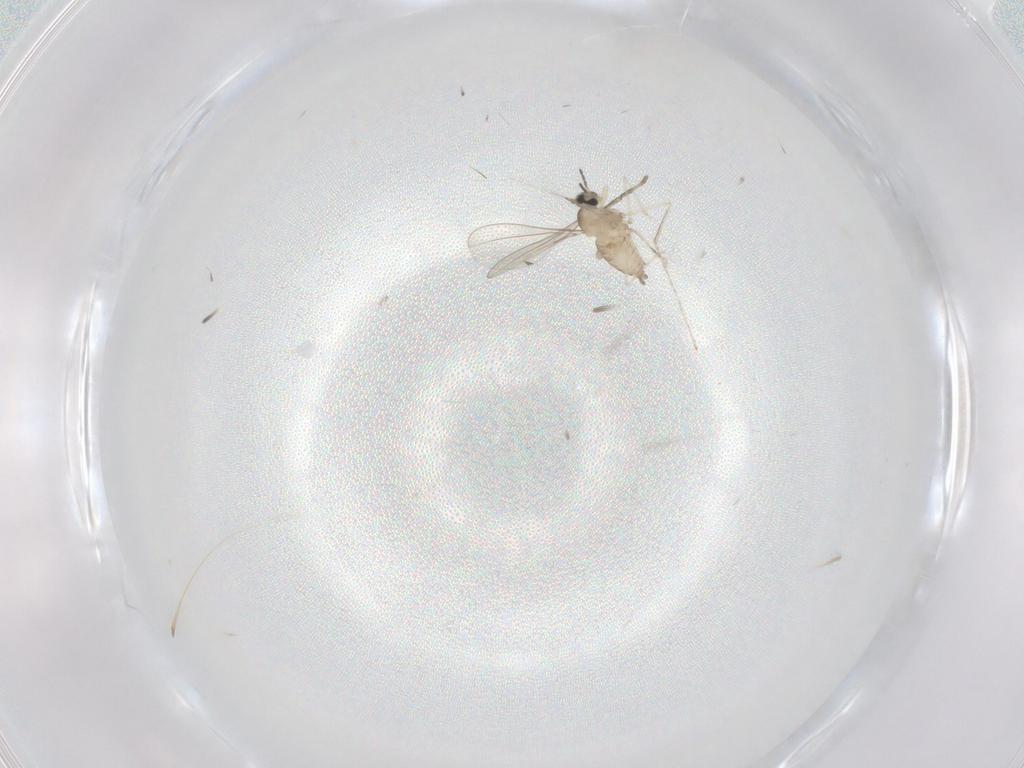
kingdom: Animalia
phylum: Arthropoda
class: Insecta
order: Diptera
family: Cecidomyiidae
